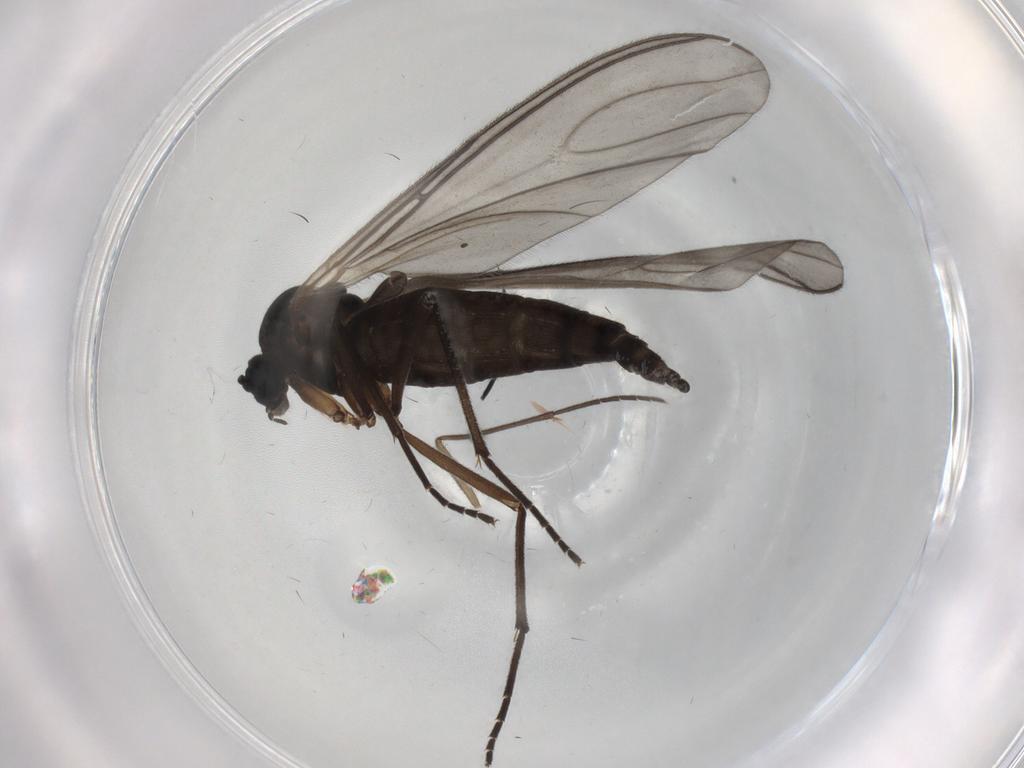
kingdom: Animalia
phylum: Arthropoda
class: Insecta
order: Diptera
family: Sciaridae
